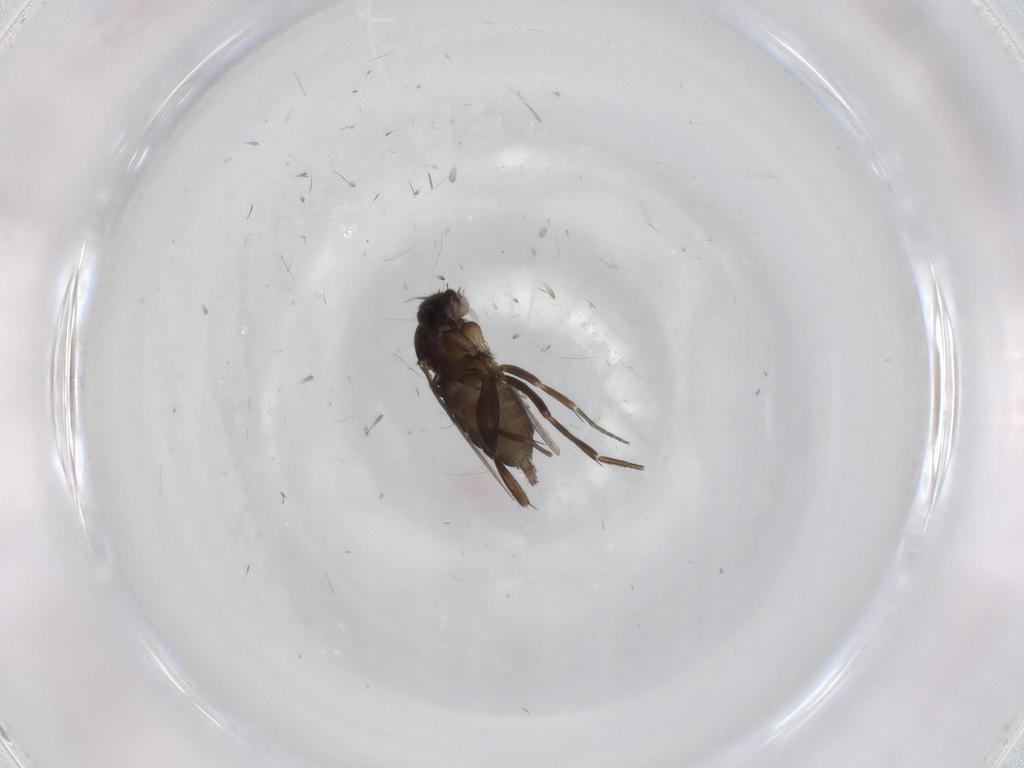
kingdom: Animalia
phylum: Arthropoda
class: Insecta
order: Diptera
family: Phoridae
